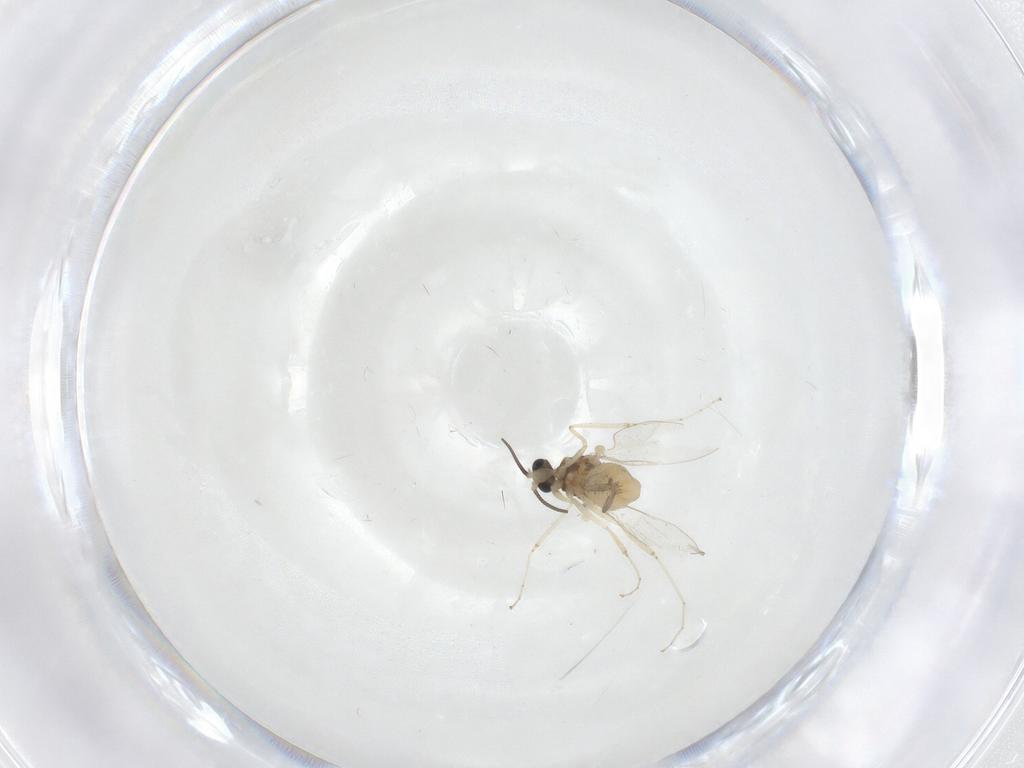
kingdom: Animalia
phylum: Arthropoda
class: Insecta
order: Diptera
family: Cecidomyiidae
